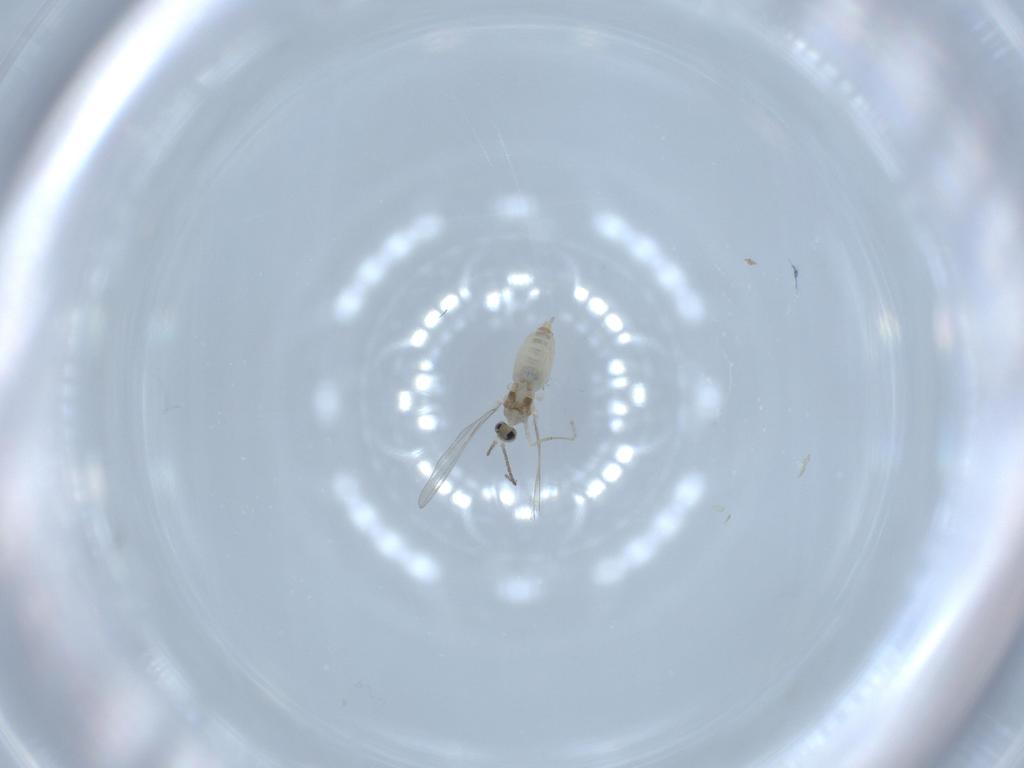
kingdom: Animalia
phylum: Arthropoda
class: Insecta
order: Diptera
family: Cecidomyiidae
